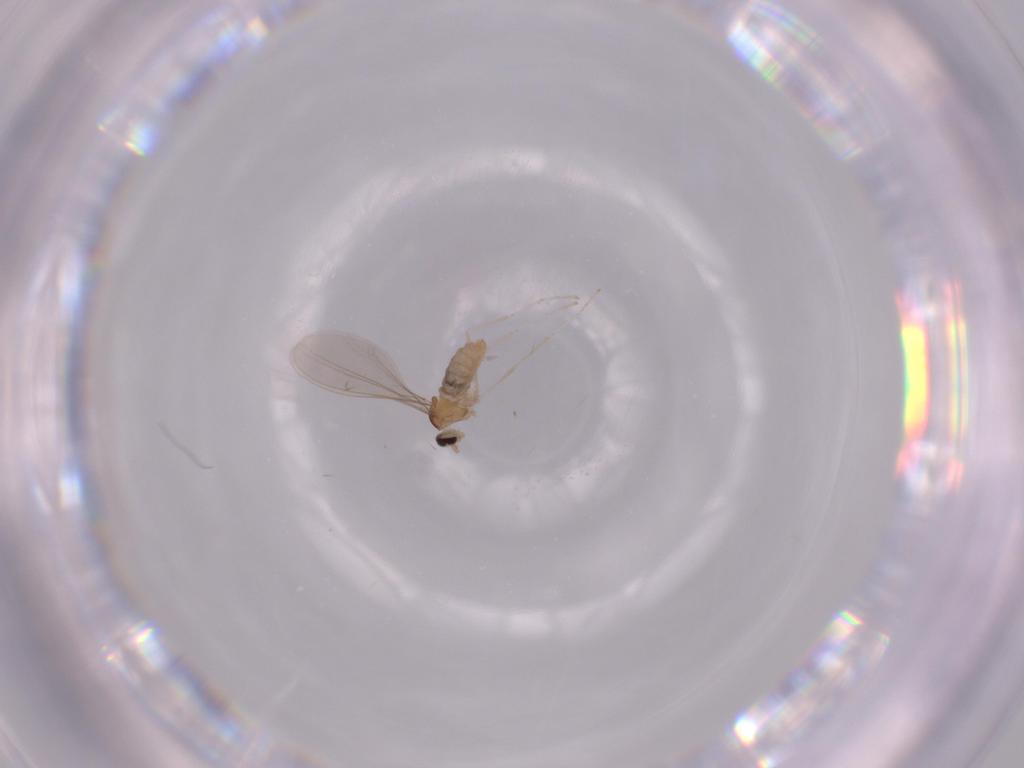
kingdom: Animalia
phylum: Arthropoda
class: Insecta
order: Diptera
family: Cecidomyiidae
